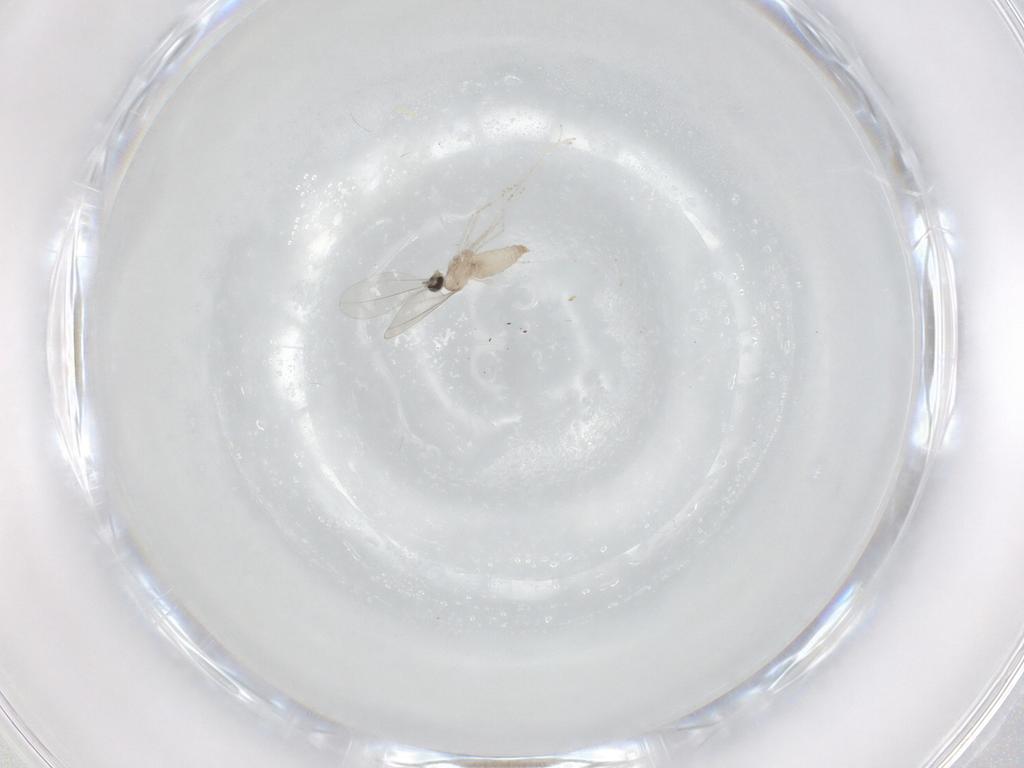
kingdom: Animalia
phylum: Arthropoda
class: Insecta
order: Diptera
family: Cecidomyiidae
